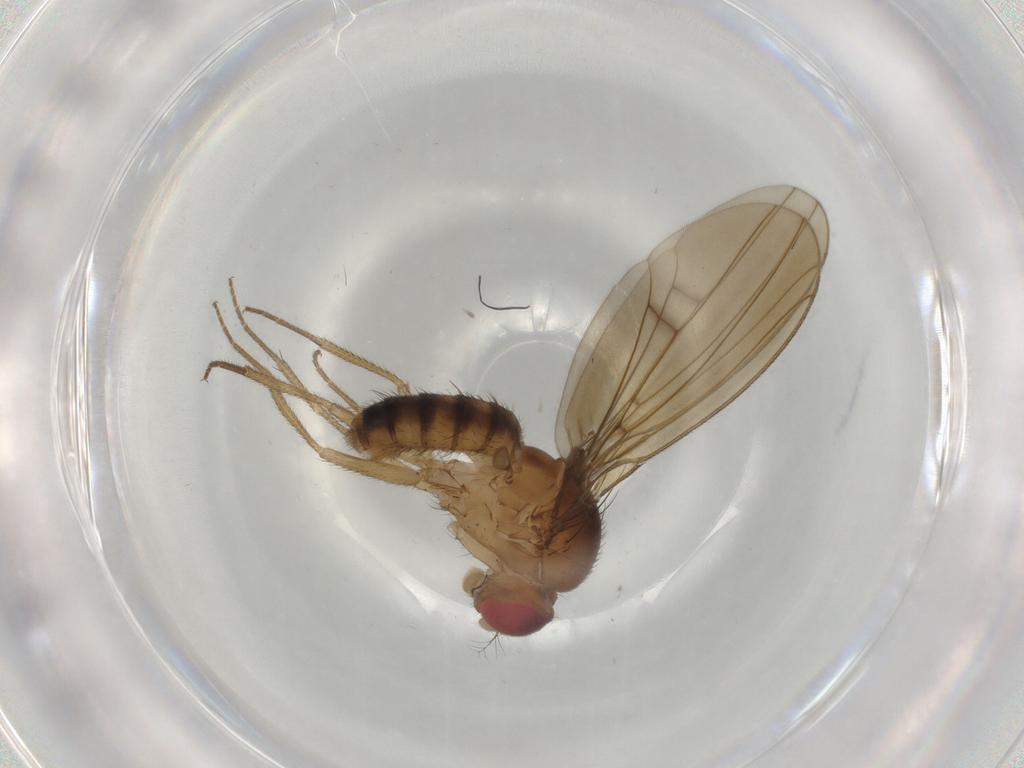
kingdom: Animalia
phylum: Arthropoda
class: Insecta
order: Diptera
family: Drosophilidae
